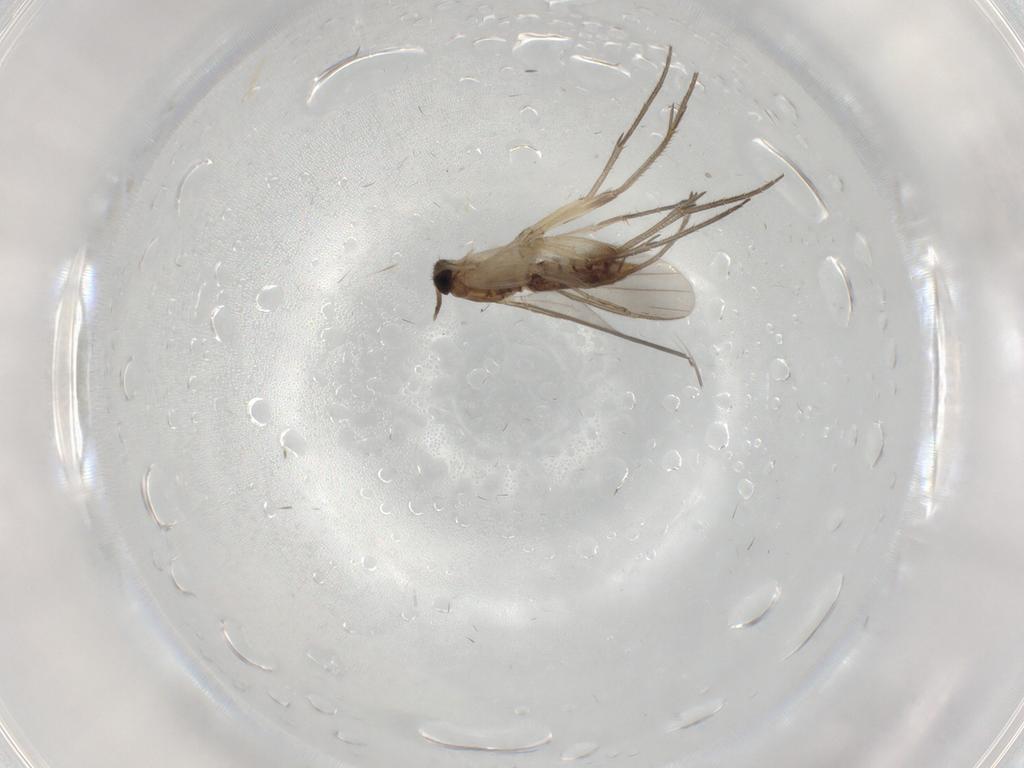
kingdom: Animalia
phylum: Arthropoda
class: Insecta
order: Diptera
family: Mycetophilidae
